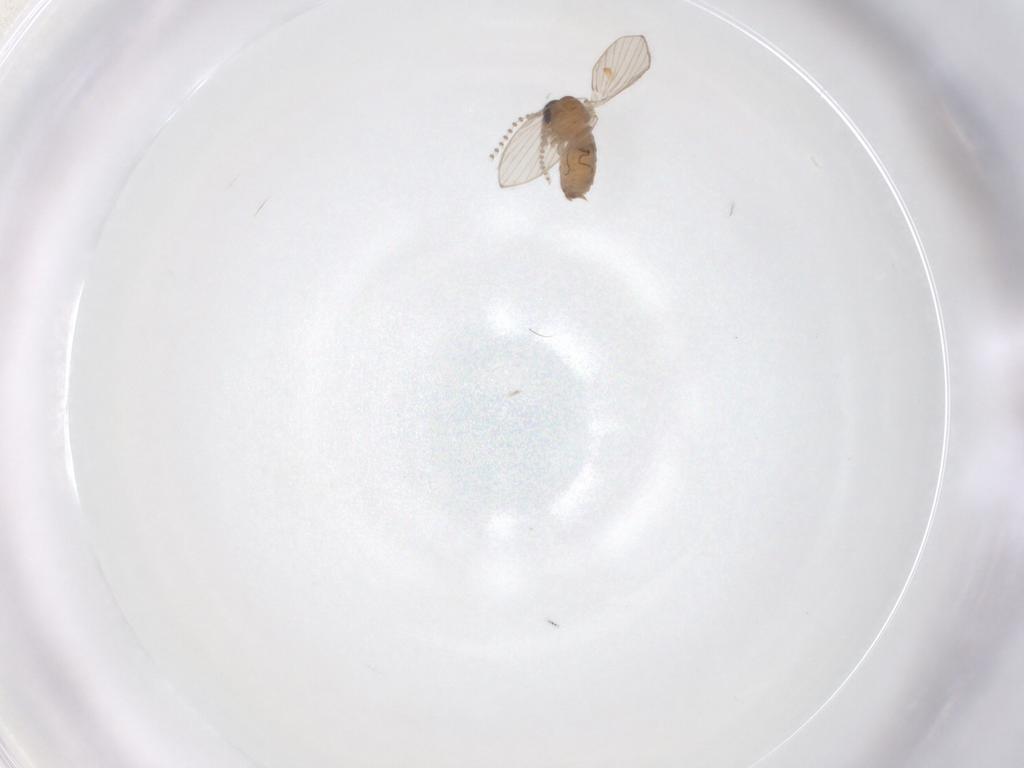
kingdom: Animalia
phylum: Arthropoda
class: Insecta
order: Diptera
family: Psychodidae
